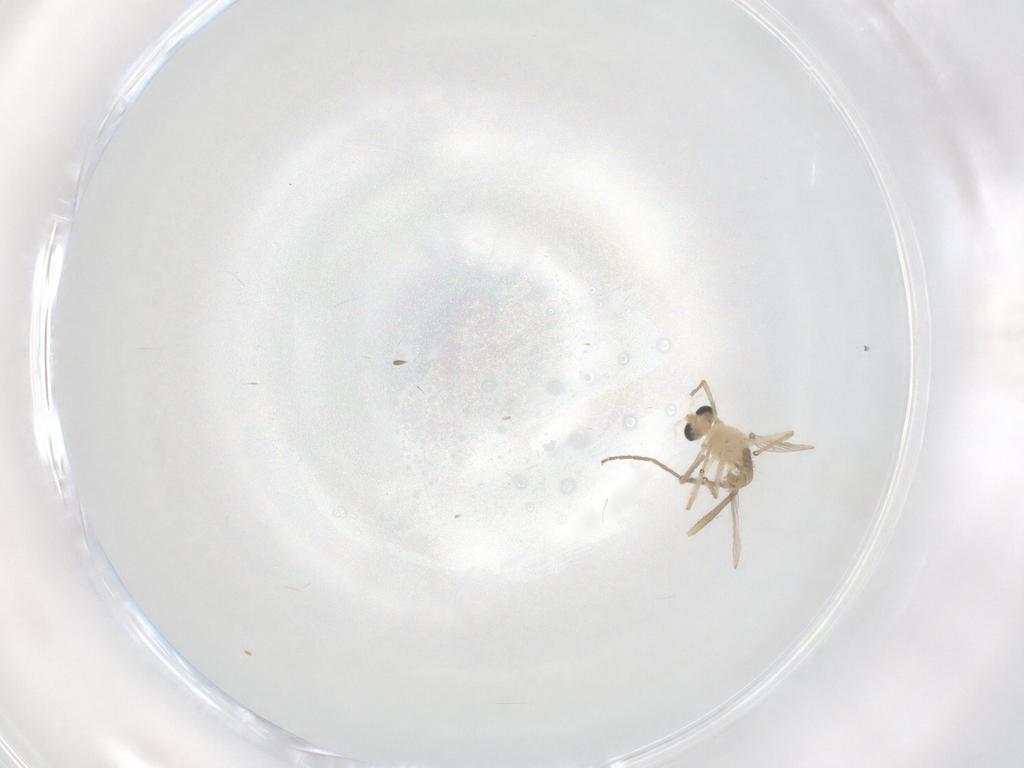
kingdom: Animalia
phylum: Arthropoda
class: Insecta
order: Diptera
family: Chironomidae
